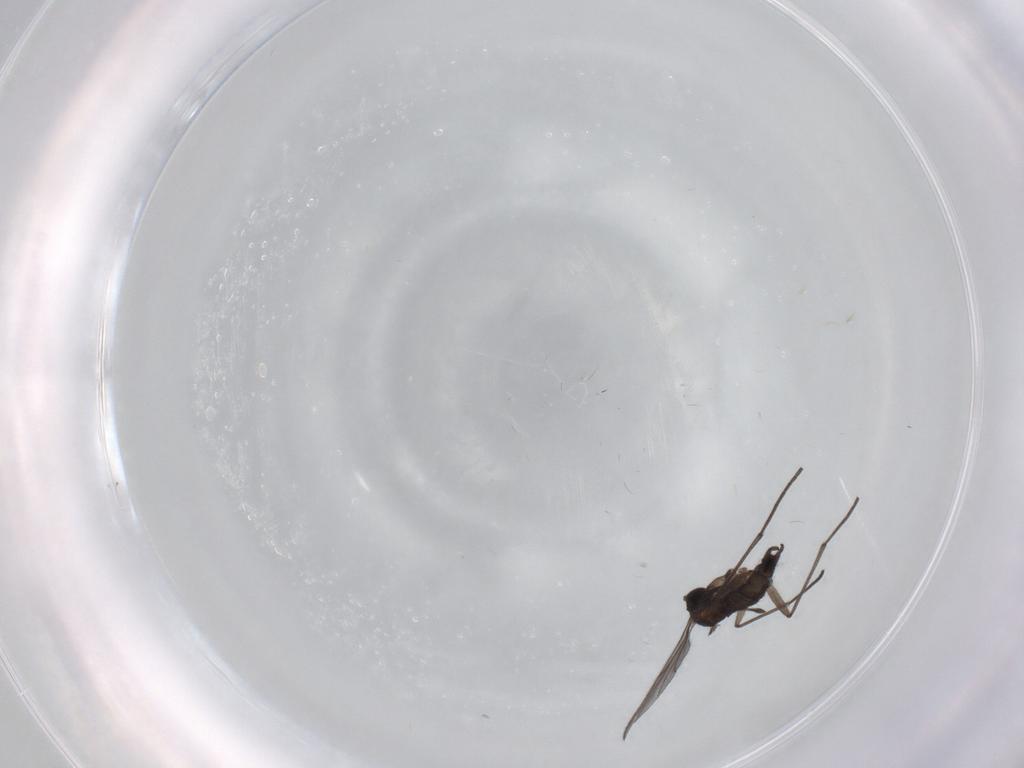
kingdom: Animalia
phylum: Arthropoda
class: Insecta
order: Diptera
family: Sciaridae
